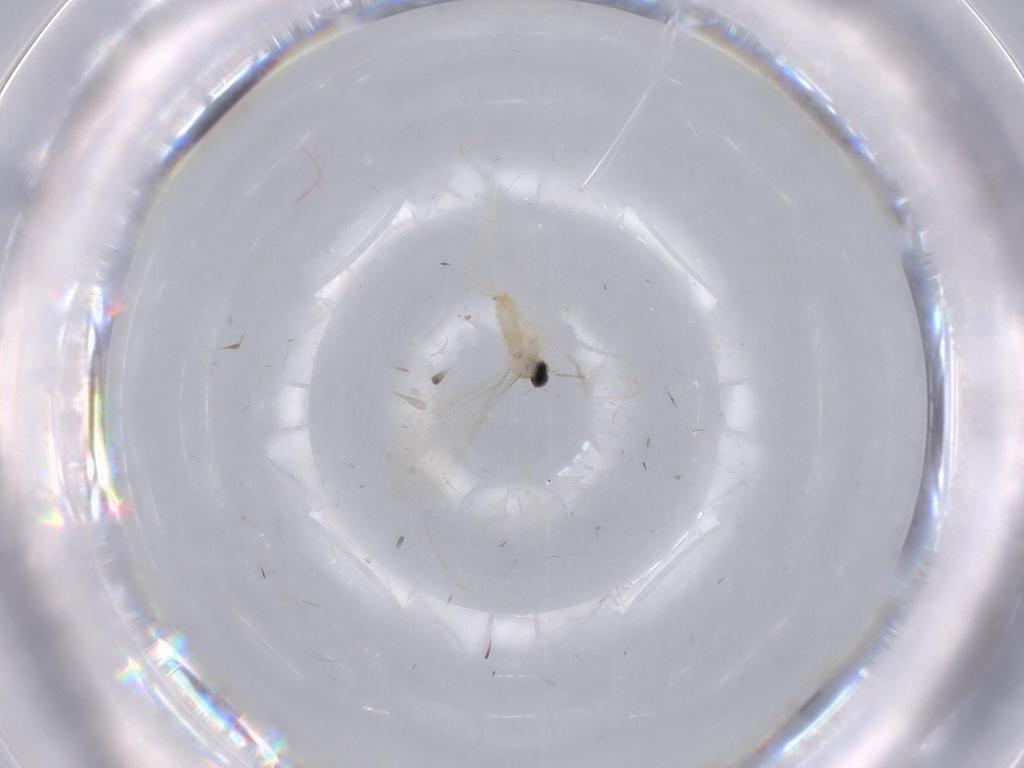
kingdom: Animalia
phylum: Arthropoda
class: Insecta
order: Diptera
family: Cecidomyiidae
